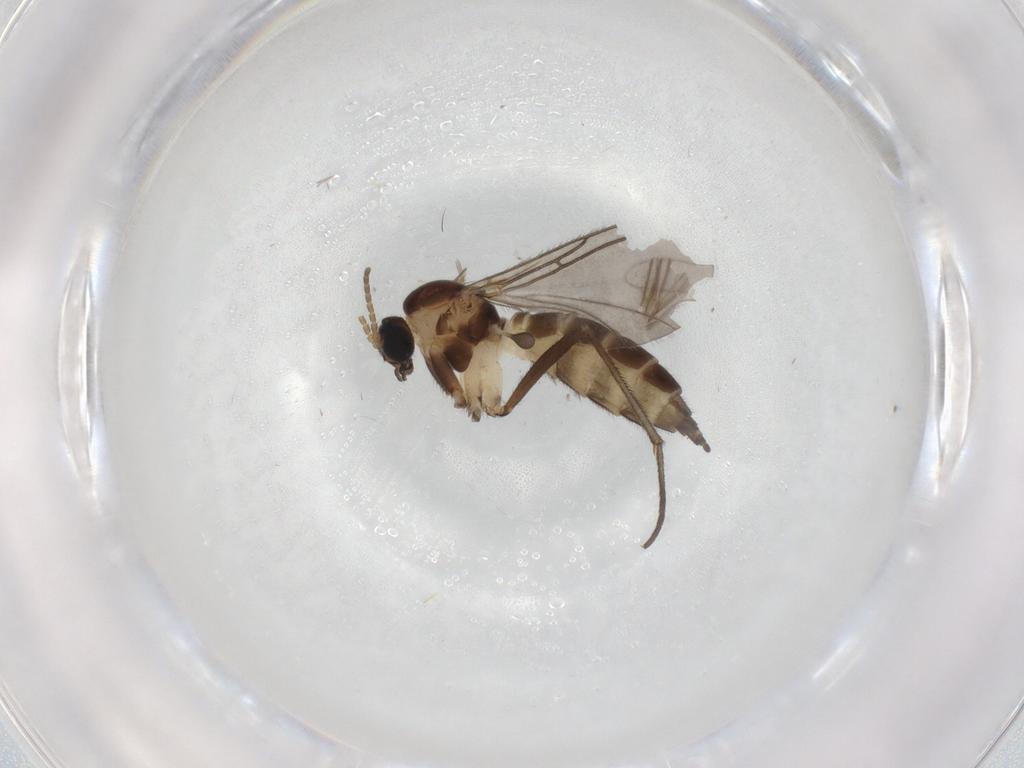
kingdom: Animalia
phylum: Arthropoda
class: Insecta
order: Diptera
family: Sciaridae
